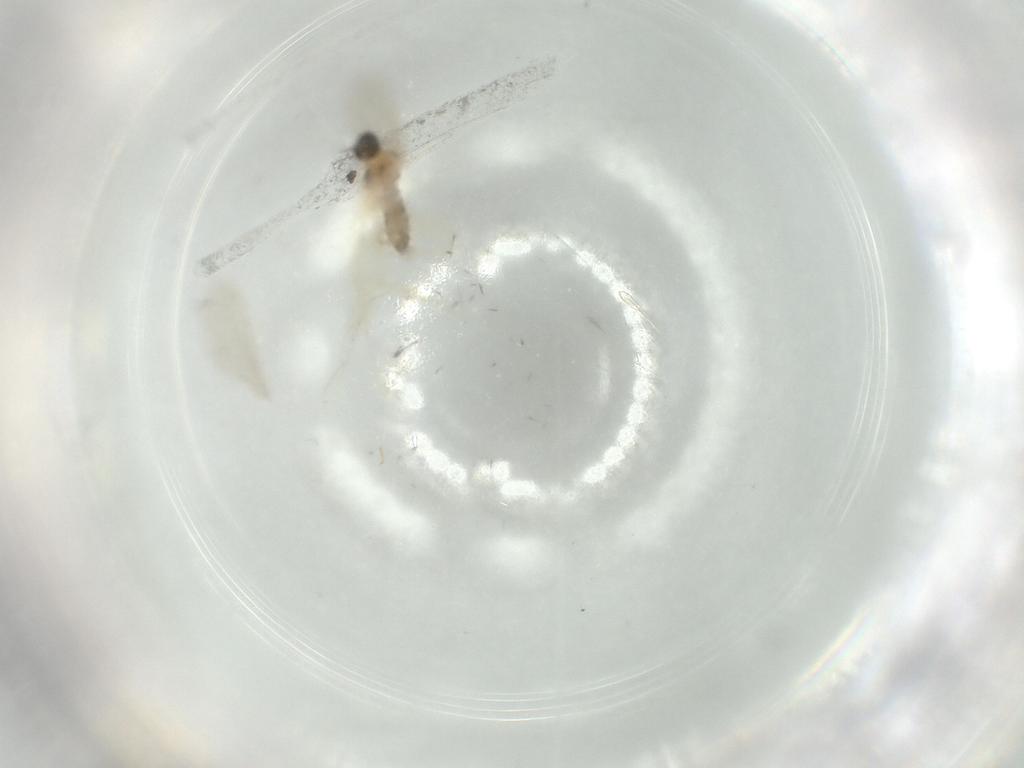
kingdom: Animalia
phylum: Arthropoda
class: Insecta
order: Diptera
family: Cecidomyiidae
